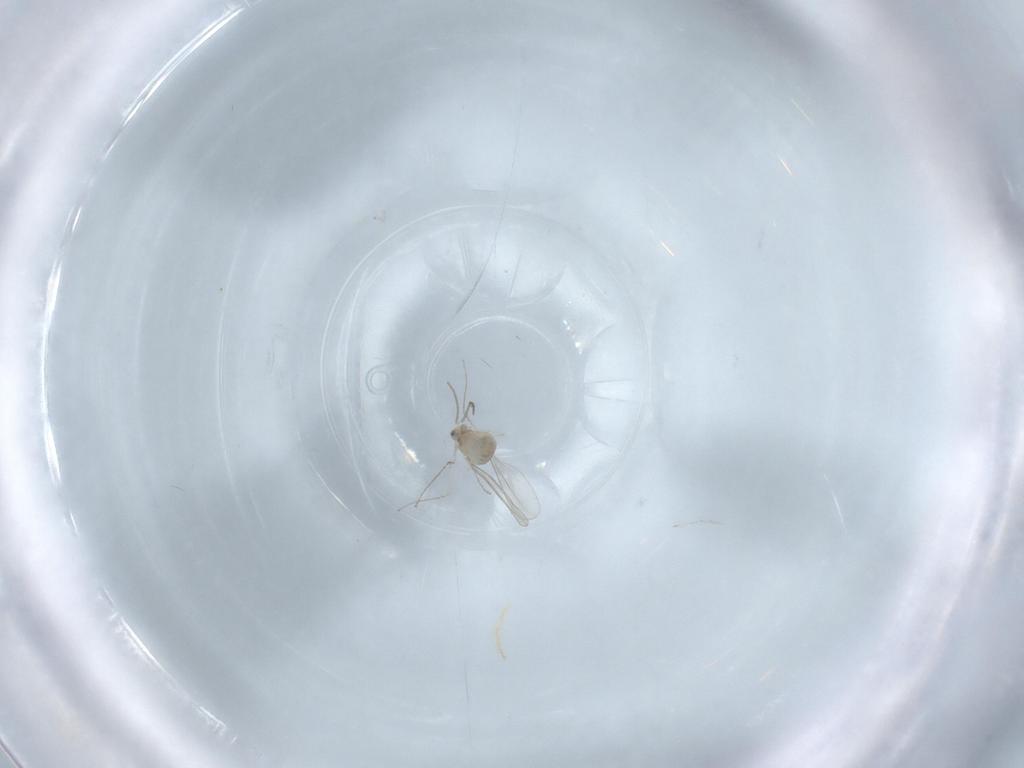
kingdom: Animalia
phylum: Arthropoda
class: Insecta
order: Diptera
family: Cecidomyiidae
